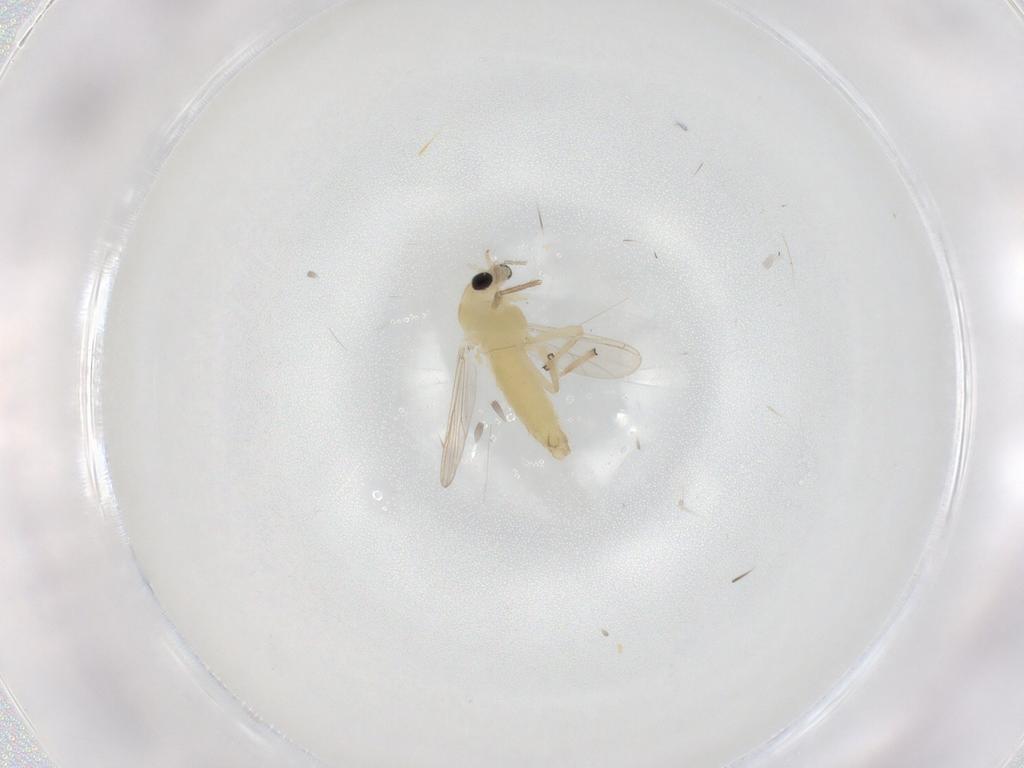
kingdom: Animalia
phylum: Arthropoda
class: Insecta
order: Diptera
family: Chironomidae
